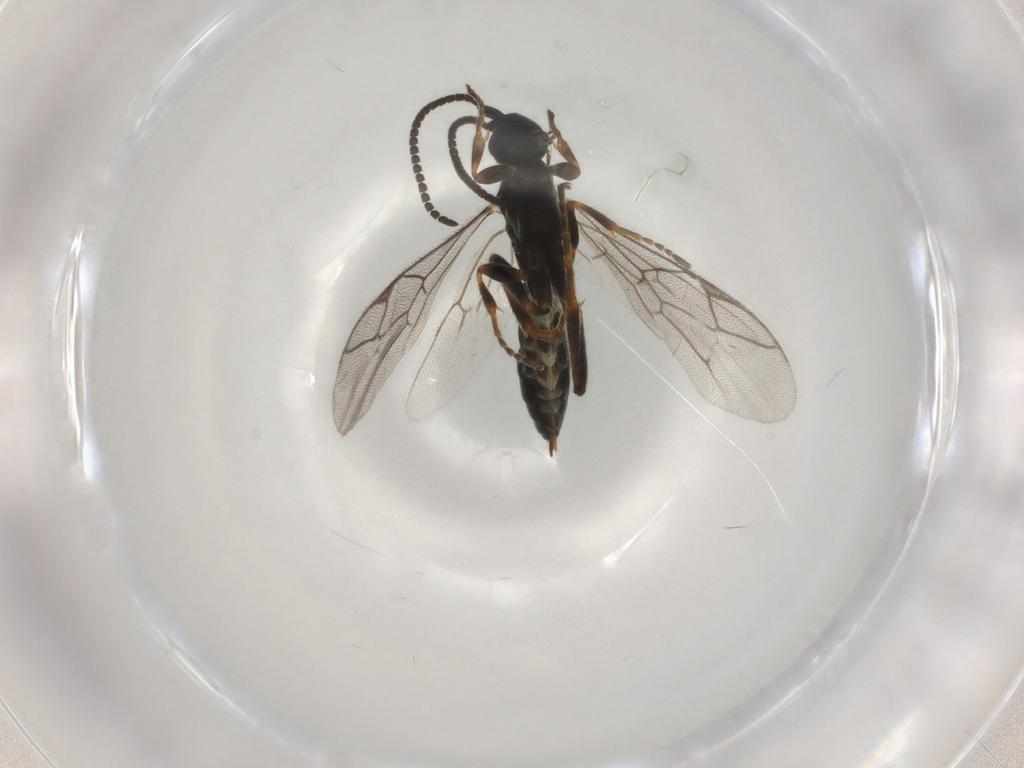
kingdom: Animalia
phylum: Arthropoda
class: Insecta
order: Hymenoptera
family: Ichneumonidae
